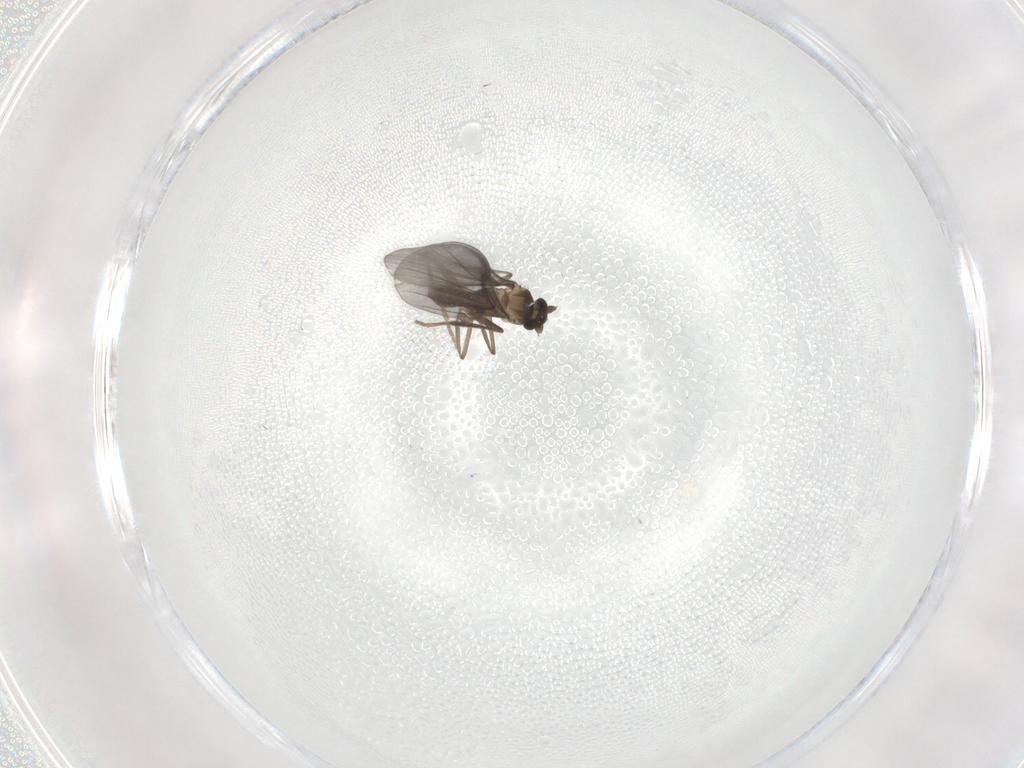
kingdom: Animalia
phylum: Arthropoda
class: Insecta
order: Diptera
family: Phoridae
